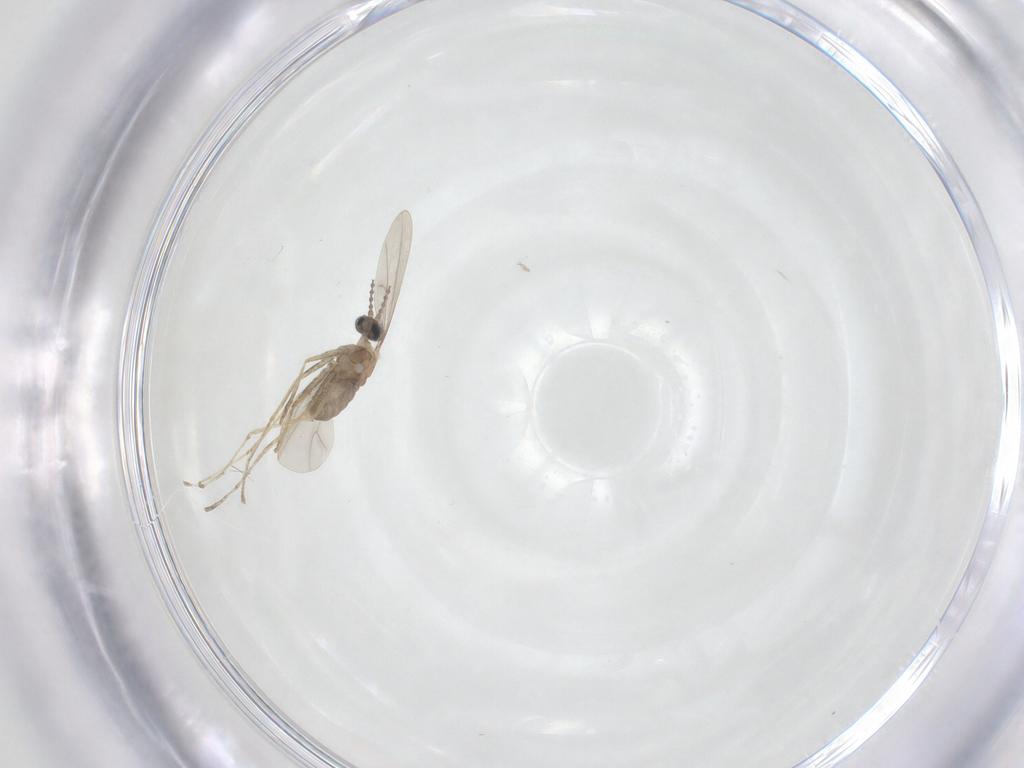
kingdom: Animalia
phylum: Arthropoda
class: Insecta
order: Diptera
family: Cecidomyiidae
